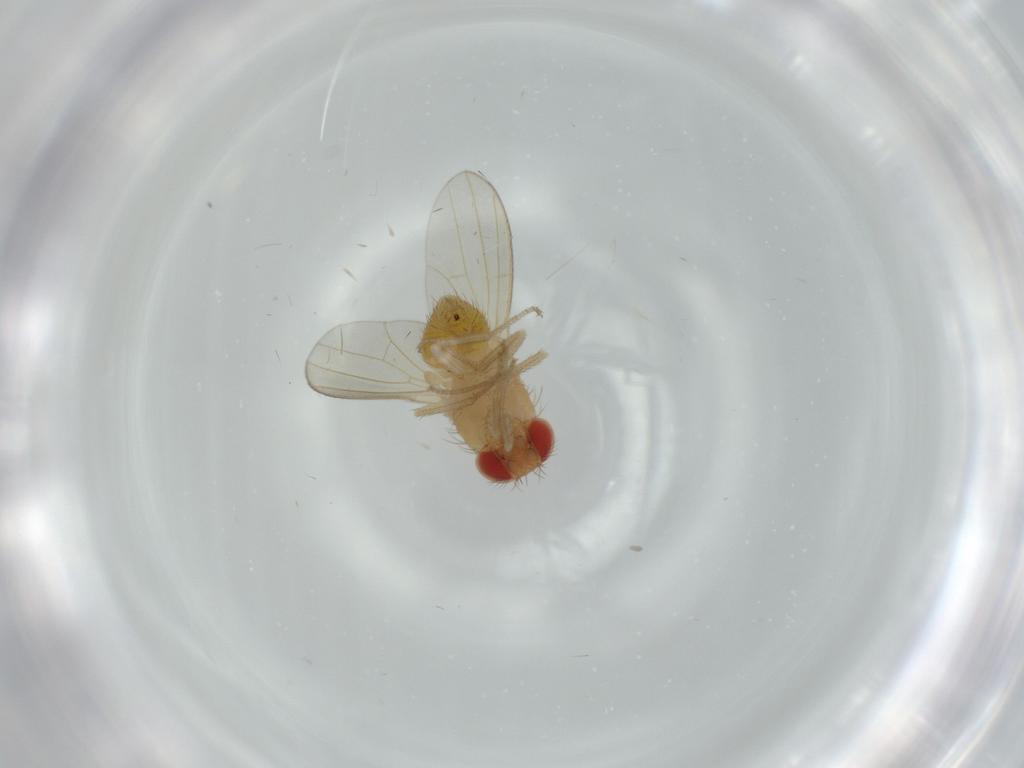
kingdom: Animalia
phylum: Arthropoda
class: Insecta
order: Diptera
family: Drosophilidae
